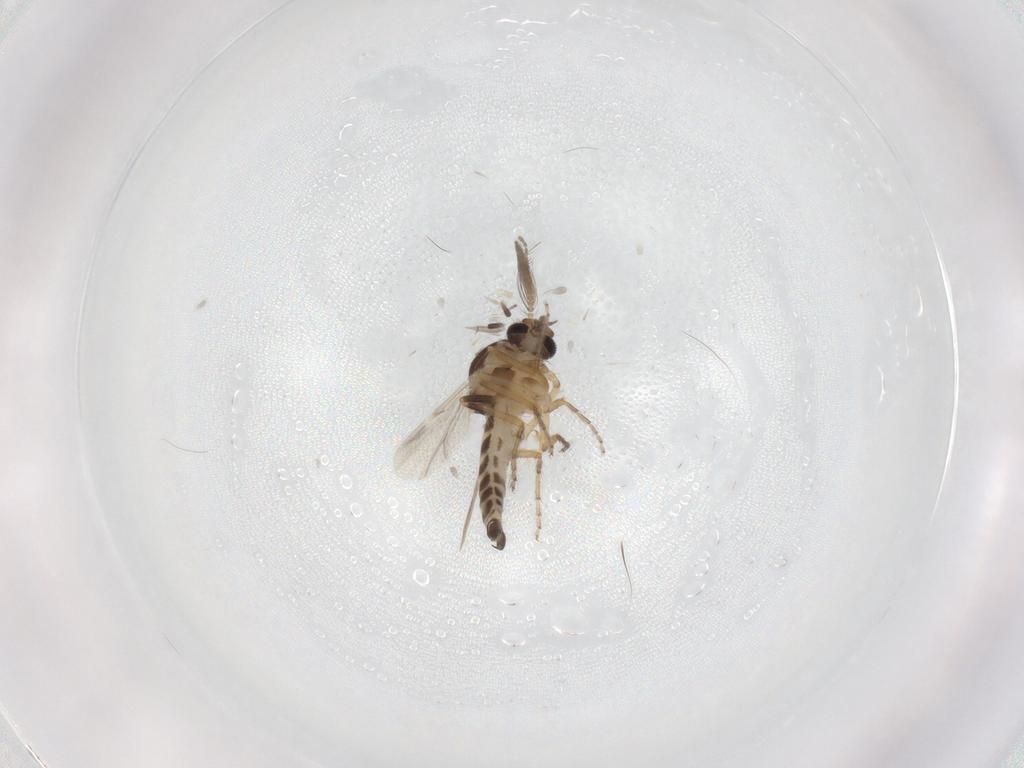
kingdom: Animalia
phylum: Arthropoda
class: Insecta
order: Diptera
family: Ceratopogonidae
